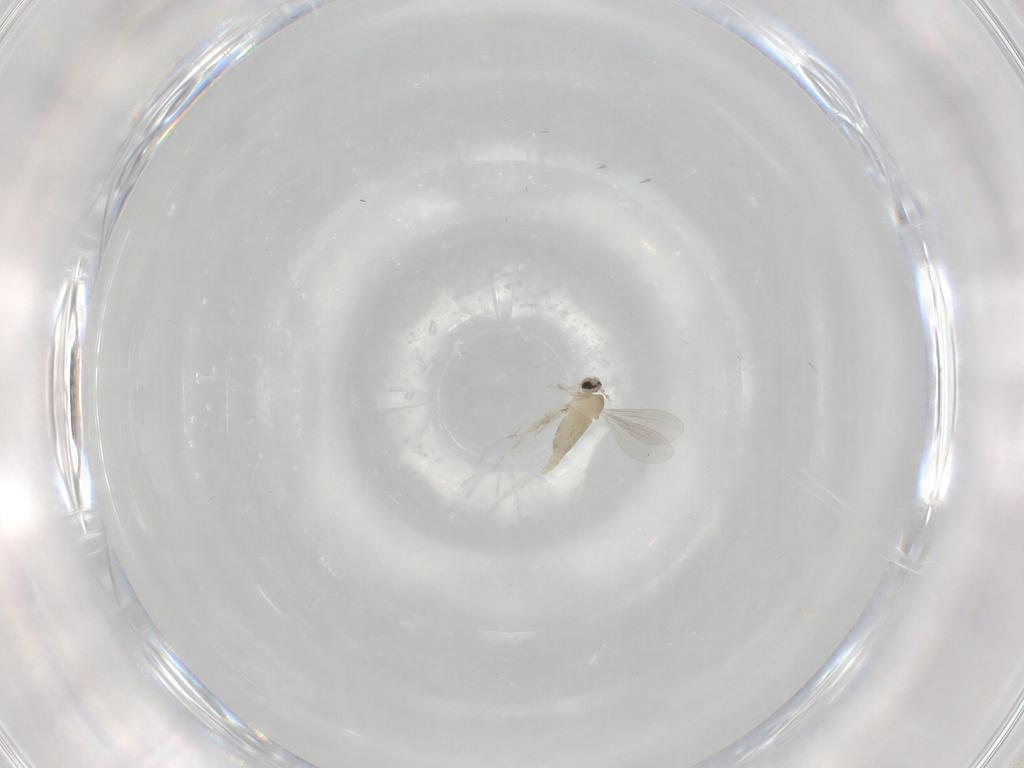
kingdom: Animalia
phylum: Arthropoda
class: Insecta
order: Diptera
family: Cecidomyiidae
